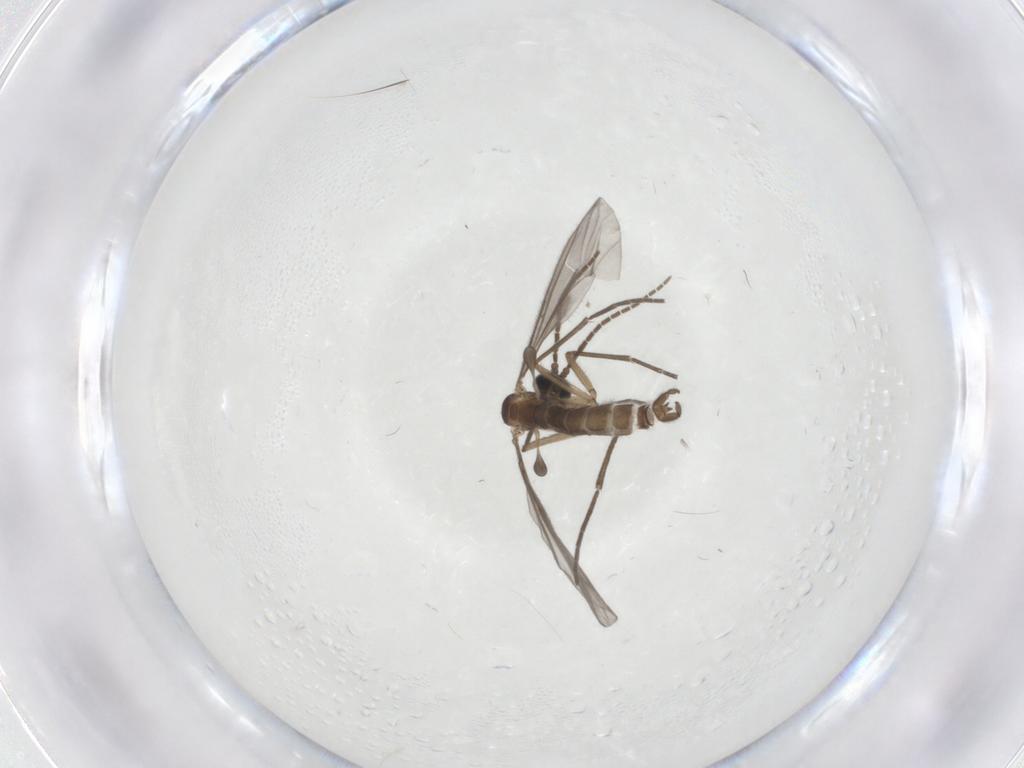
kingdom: Animalia
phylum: Arthropoda
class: Insecta
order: Diptera
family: Sciaridae
